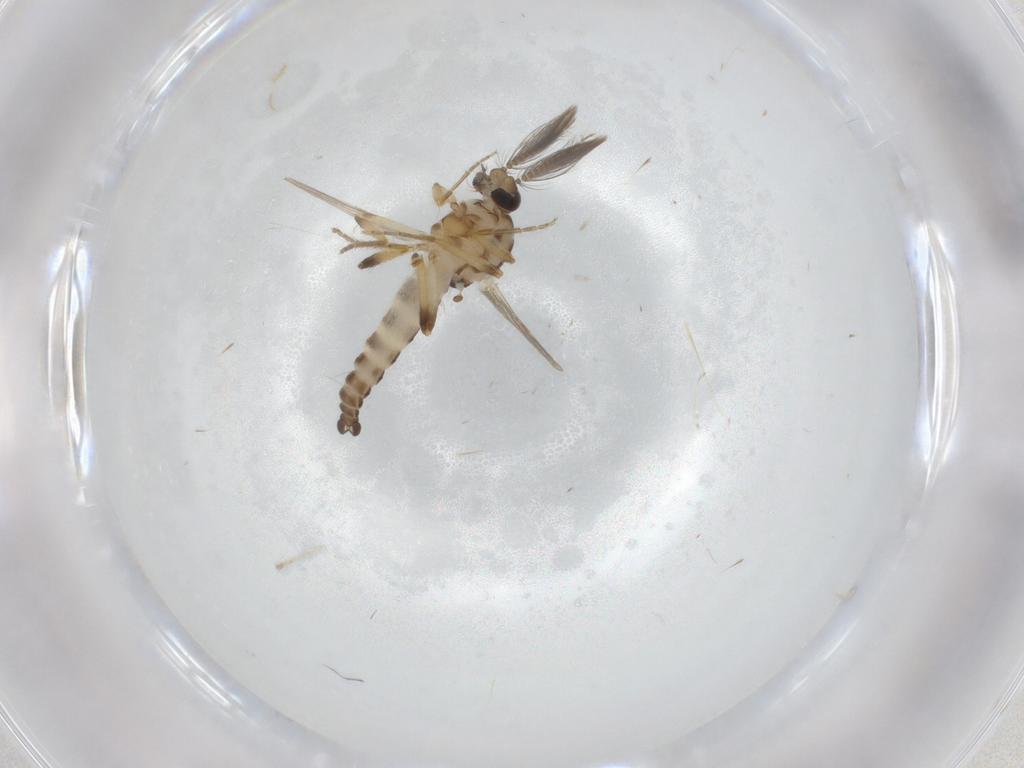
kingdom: Animalia
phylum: Arthropoda
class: Insecta
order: Diptera
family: Ceratopogonidae
